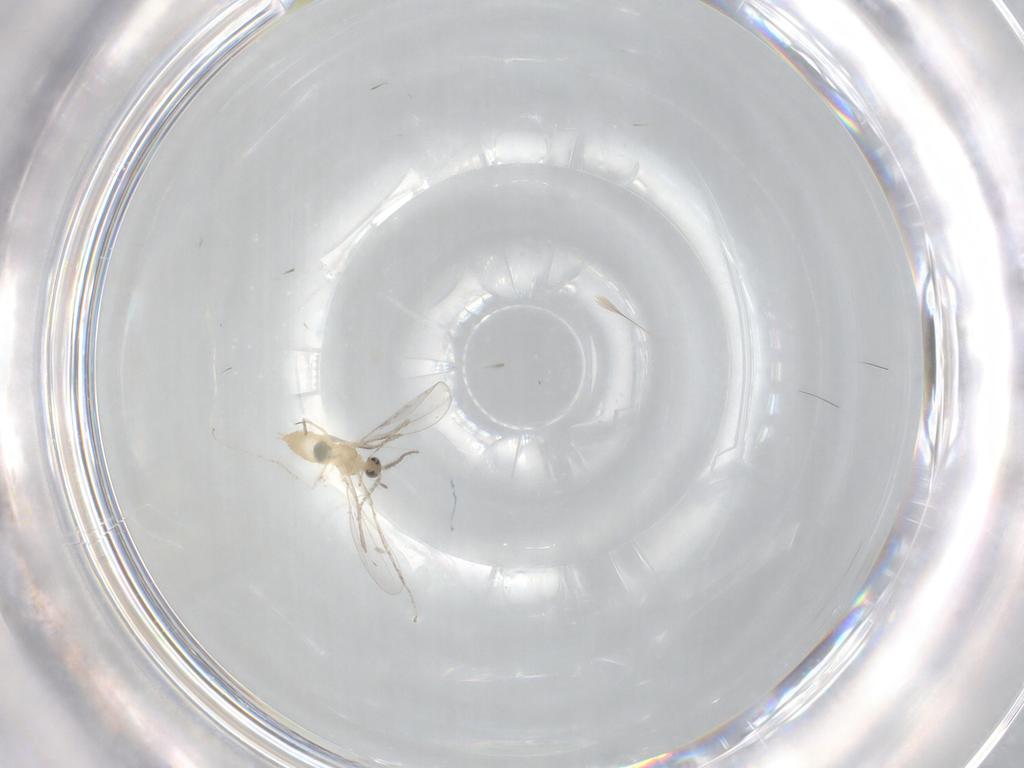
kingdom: Animalia
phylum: Arthropoda
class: Insecta
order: Diptera
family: Cecidomyiidae
